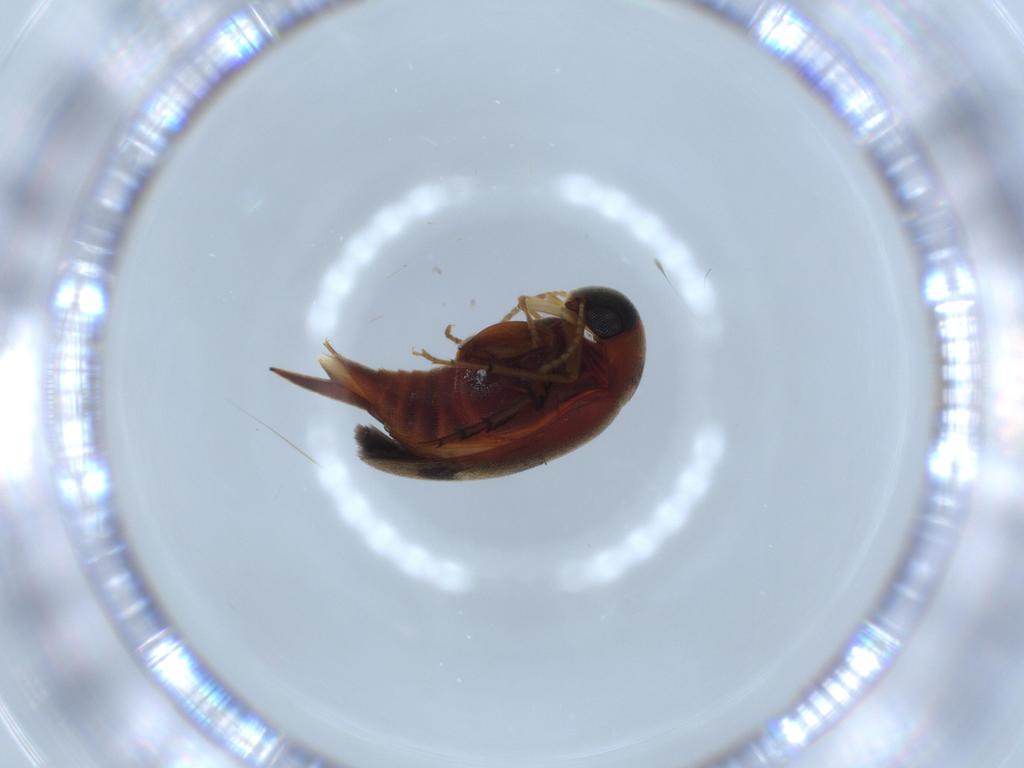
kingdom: Animalia
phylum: Arthropoda
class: Insecta
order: Coleoptera
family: Mordellidae
